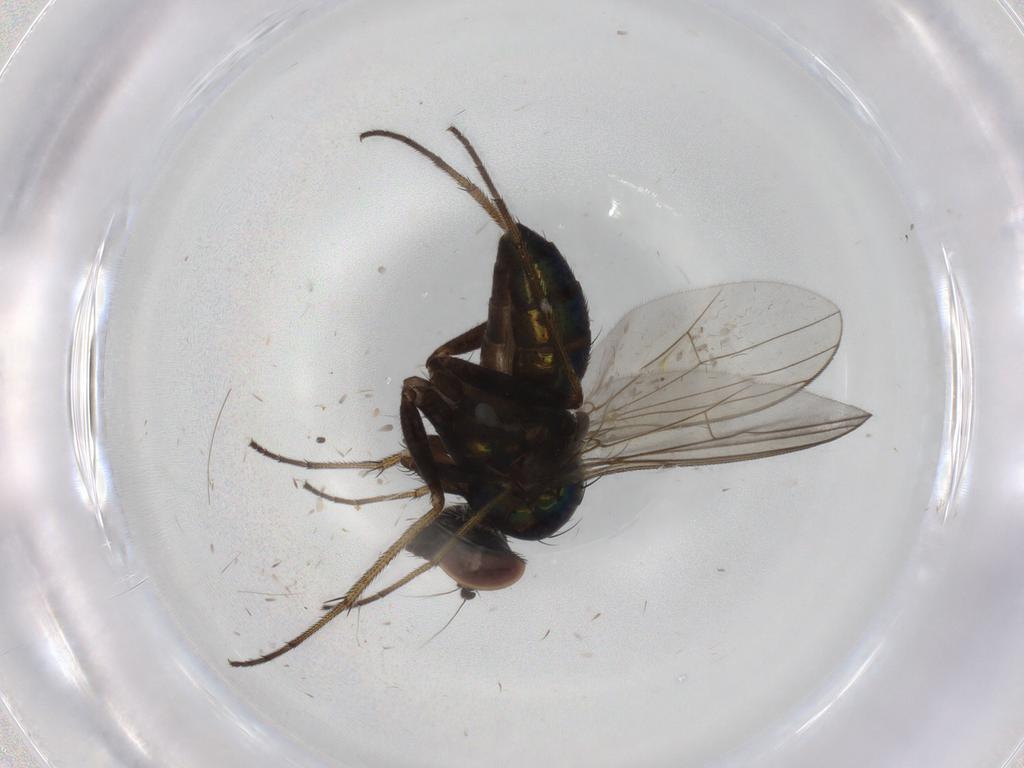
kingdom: Animalia
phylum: Arthropoda
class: Insecta
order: Diptera
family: Dolichopodidae
